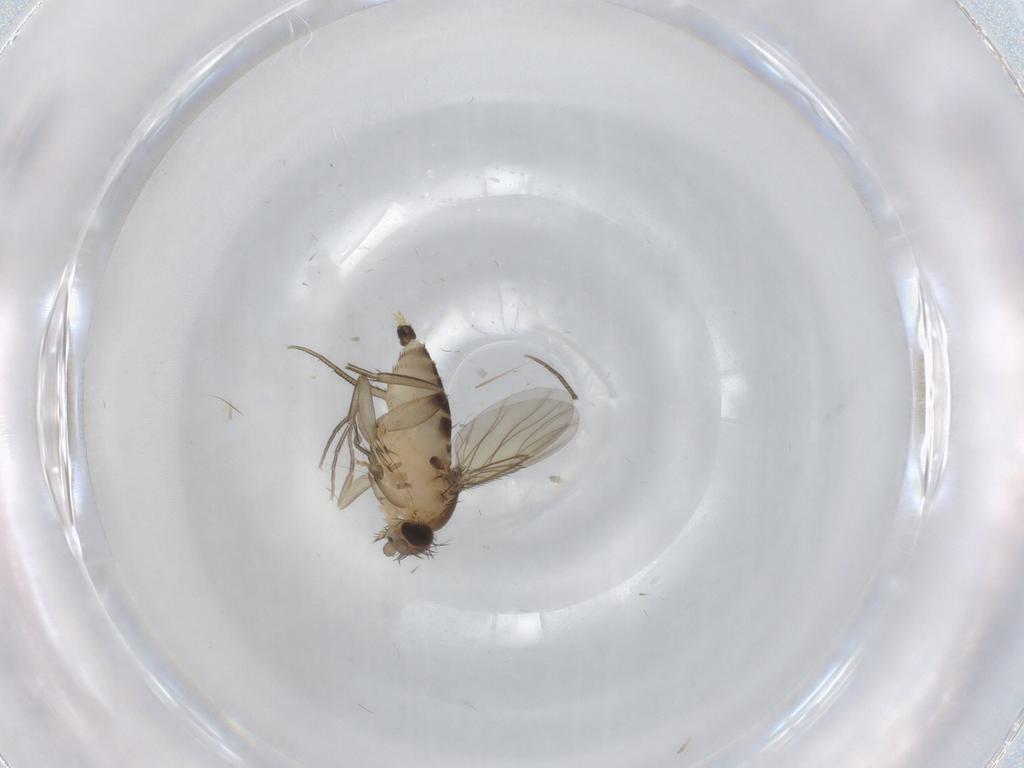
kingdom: Animalia
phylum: Arthropoda
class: Insecta
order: Diptera
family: Phoridae
